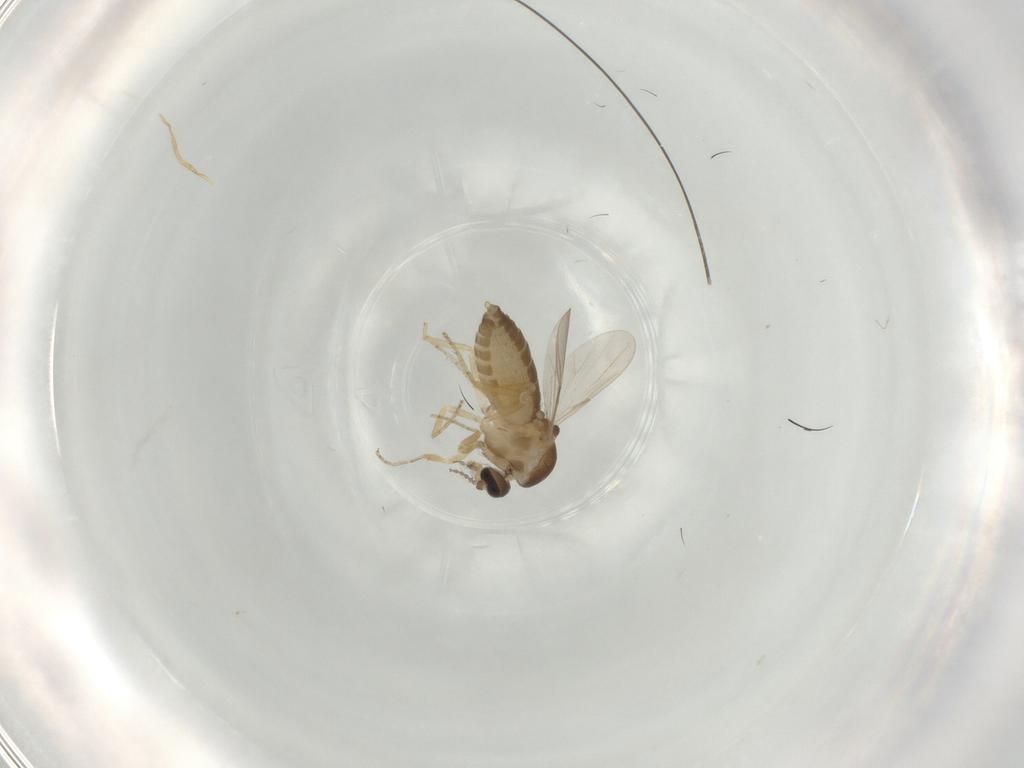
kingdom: Animalia
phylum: Arthropoda
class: Insecta
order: Diptera
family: Ceratopogonidae
